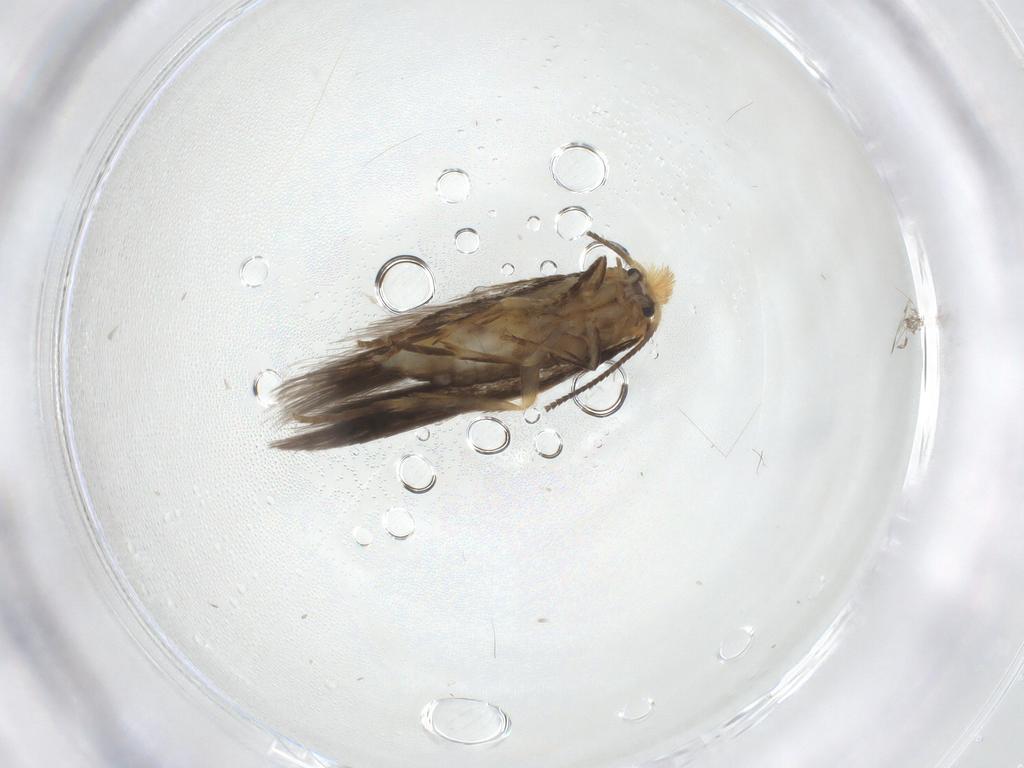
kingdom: Animalia
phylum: Arthropoda
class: Insecta
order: Lepidoptera
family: Nepticulidae
